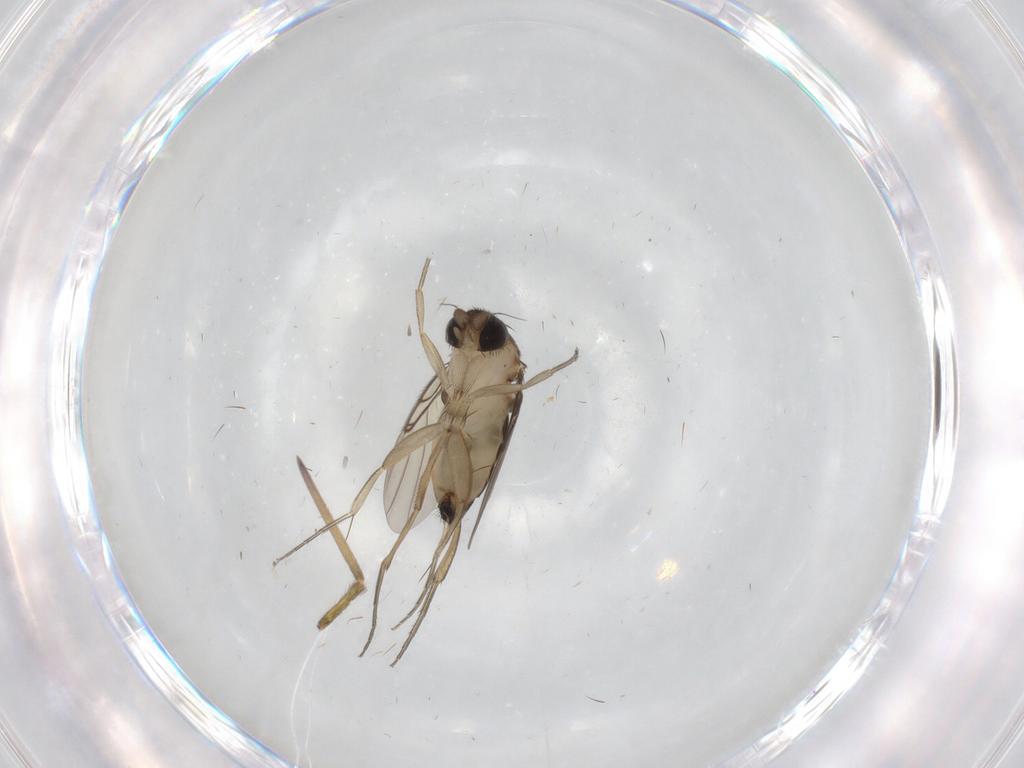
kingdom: Animalia
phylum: Arthropoda
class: Insecta
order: Diptera
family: Phoridae
